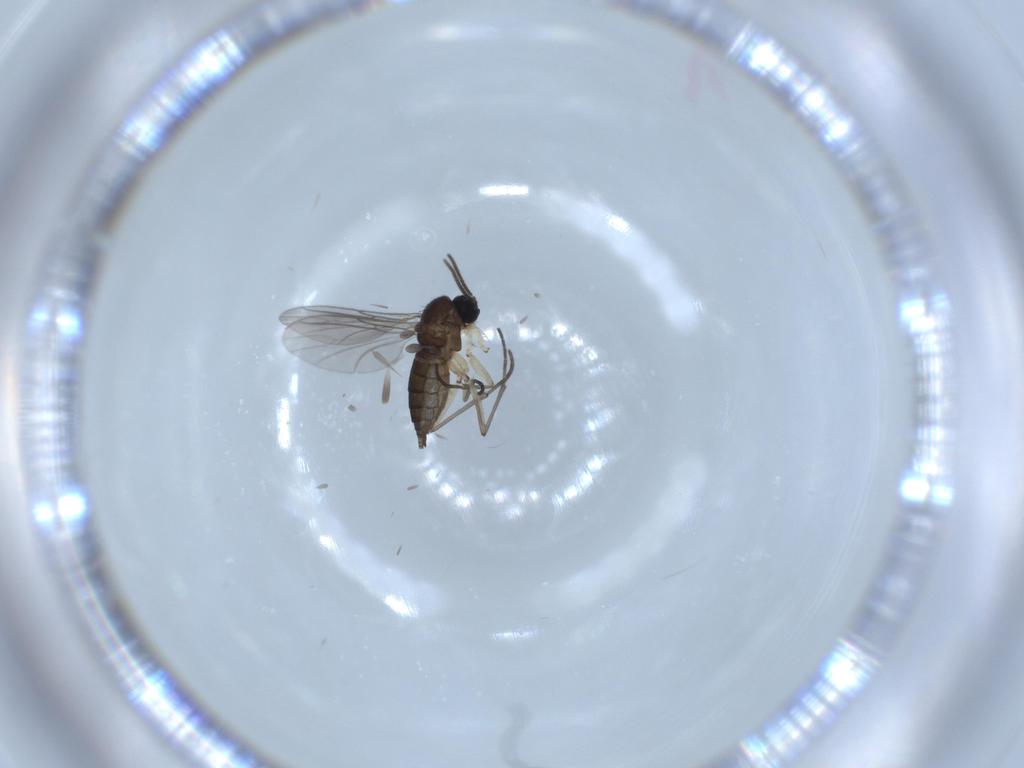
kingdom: Animalia
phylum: Arthropoda
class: Insecta
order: Diptera
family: Sciaridae
